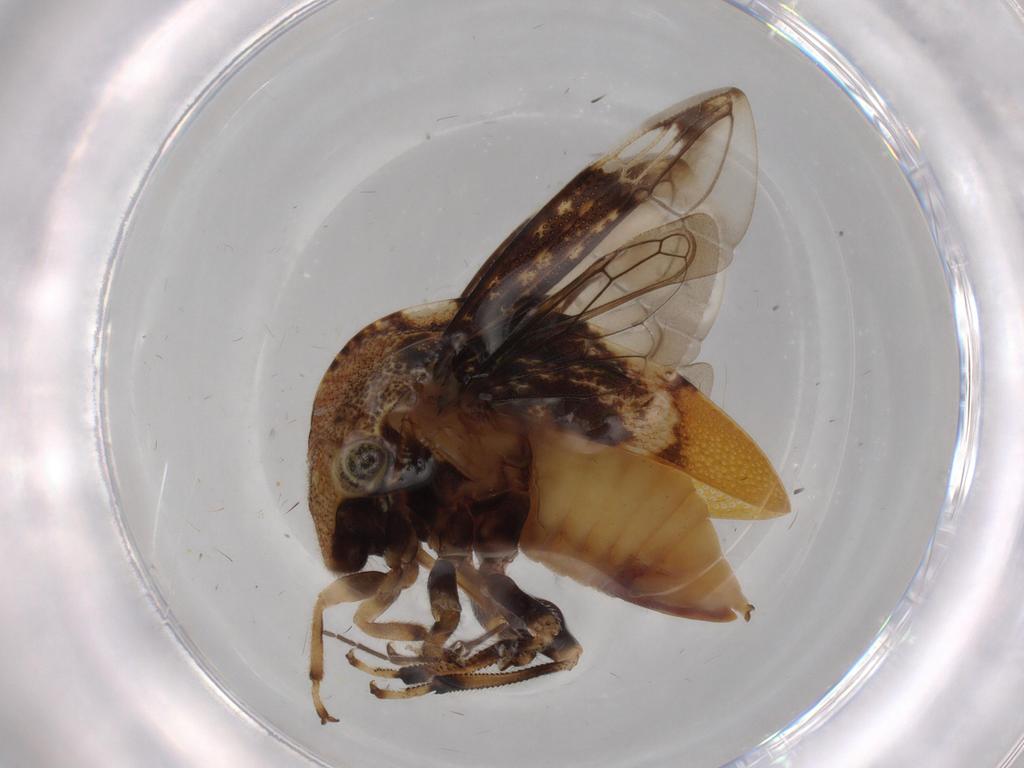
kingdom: Animalia
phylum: Arthropoda
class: Insecta
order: Hemiptera
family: Membracidae
